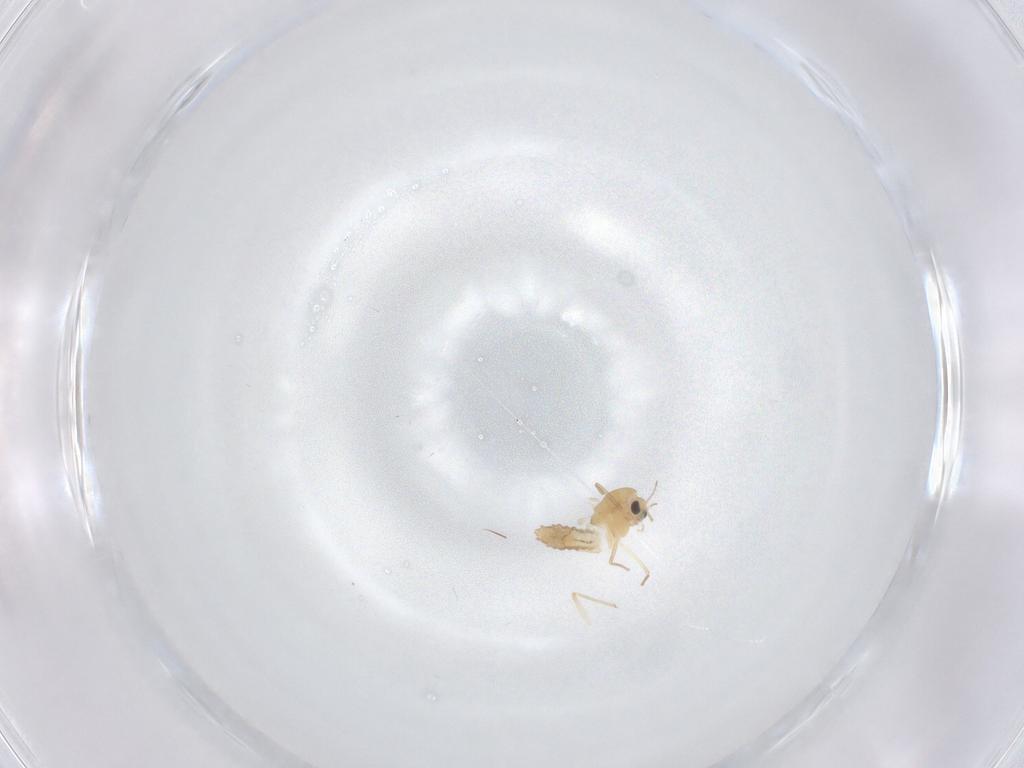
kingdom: Animalia
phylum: Arthropoda
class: Insecta
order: Diptera
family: Chironomidae
